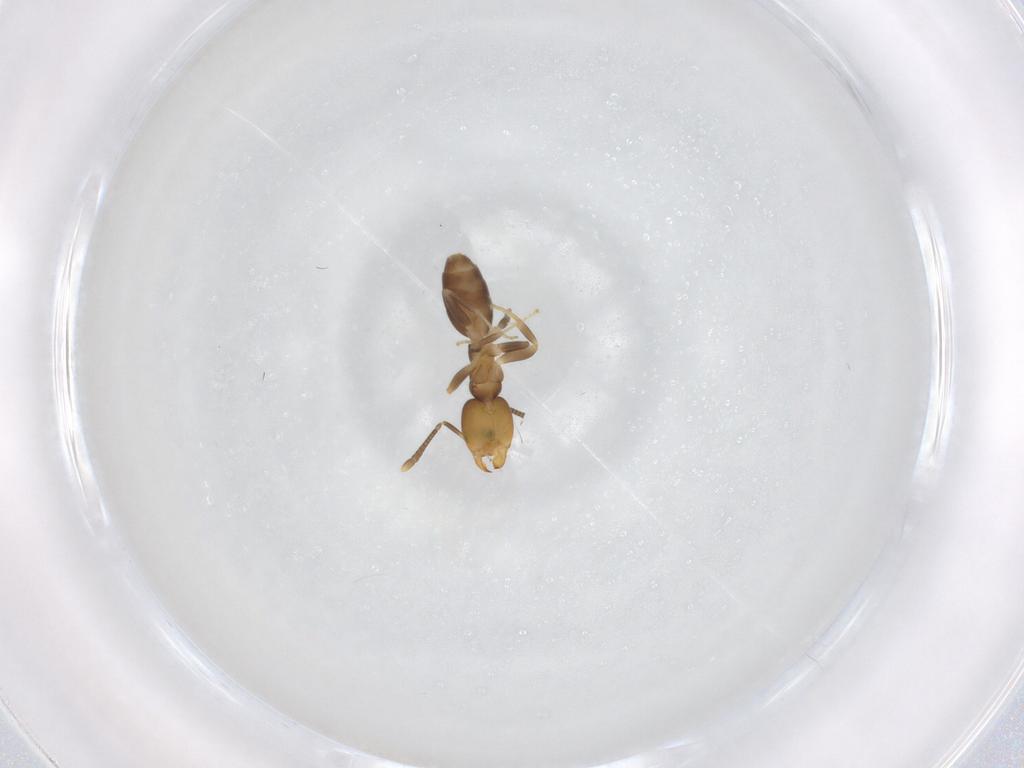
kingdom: Animalia
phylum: Arthropoda
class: Insecta
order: Hymenoptera
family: Formicidae
